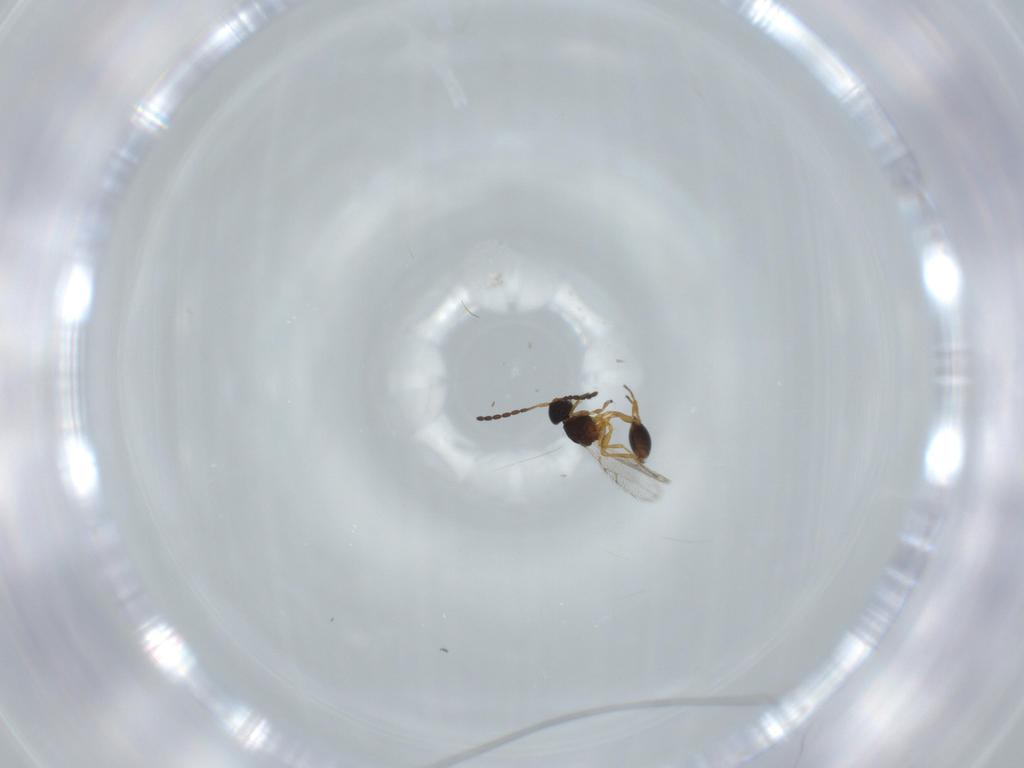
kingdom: Animalia
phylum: Arthropoda
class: Insecta
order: Hymenoptera
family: Figitidae
